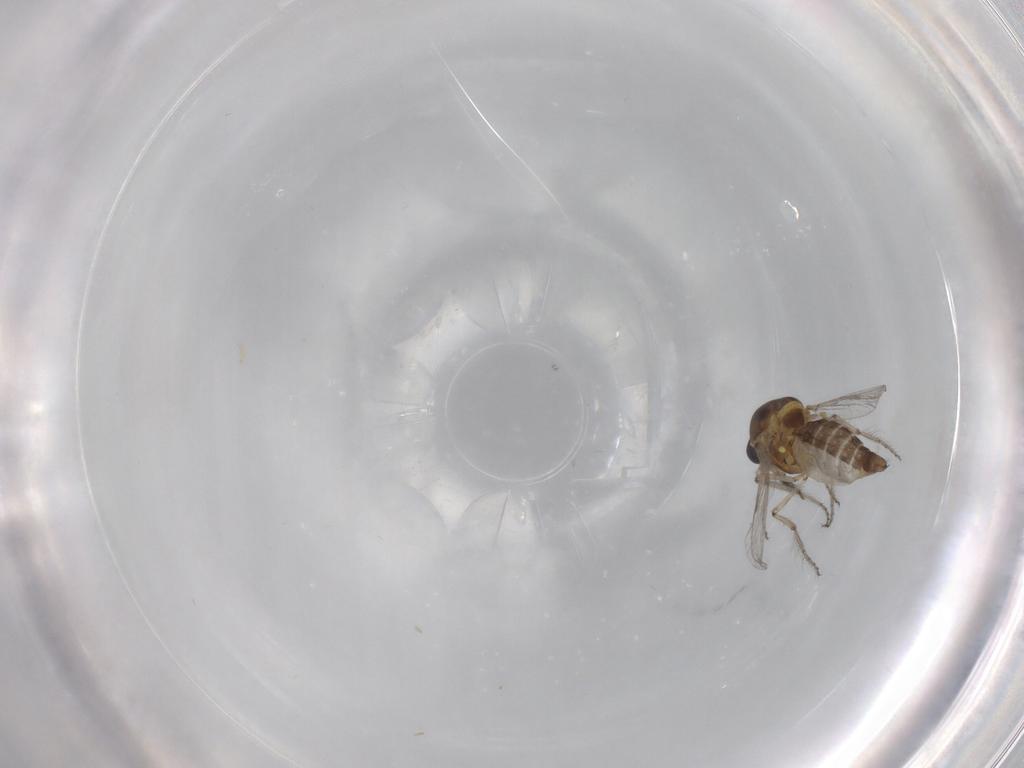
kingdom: Animalia
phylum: Arthropoda
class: Insecta
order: Diptera
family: Ceratopogonidae
